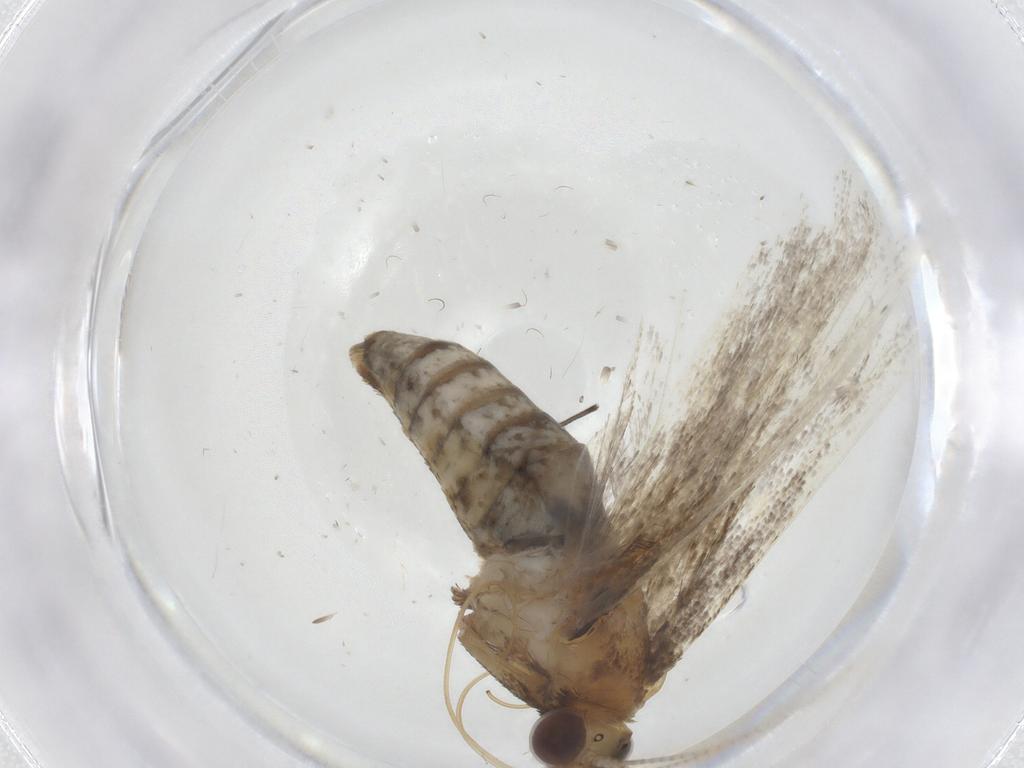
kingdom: Animalia
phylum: Arthropoda
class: Insecta
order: Lepidoptera
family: Crambidae
